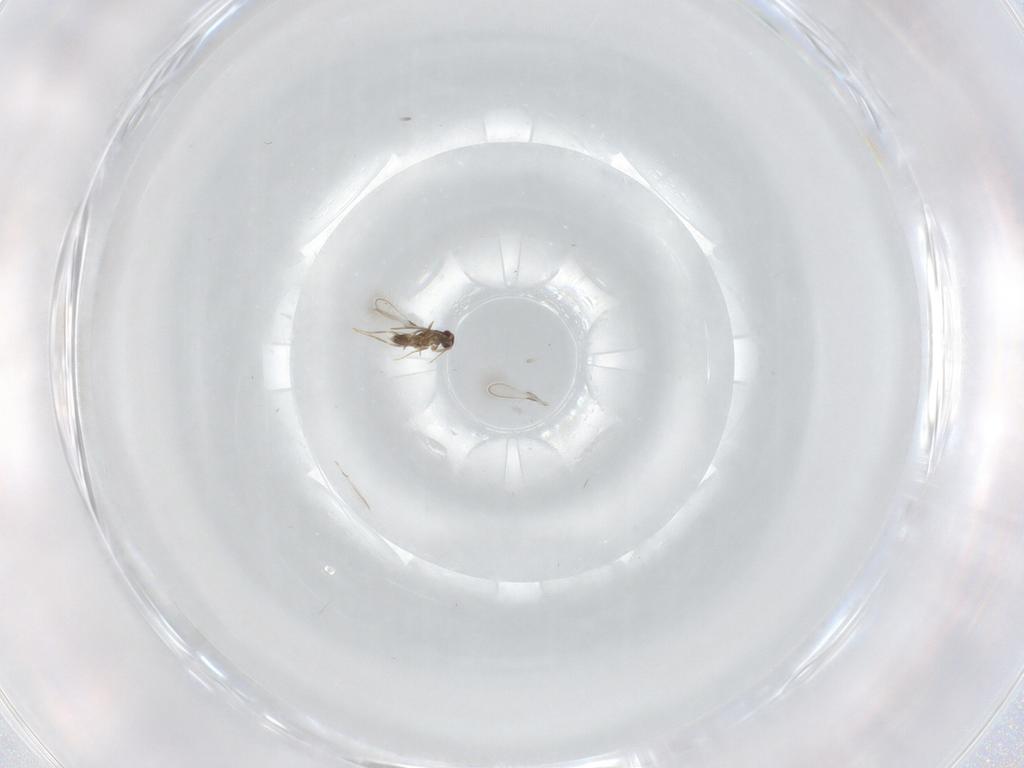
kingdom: Animalia
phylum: Arthropoda
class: Insecta
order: Hymenoptera
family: Mymaridae
